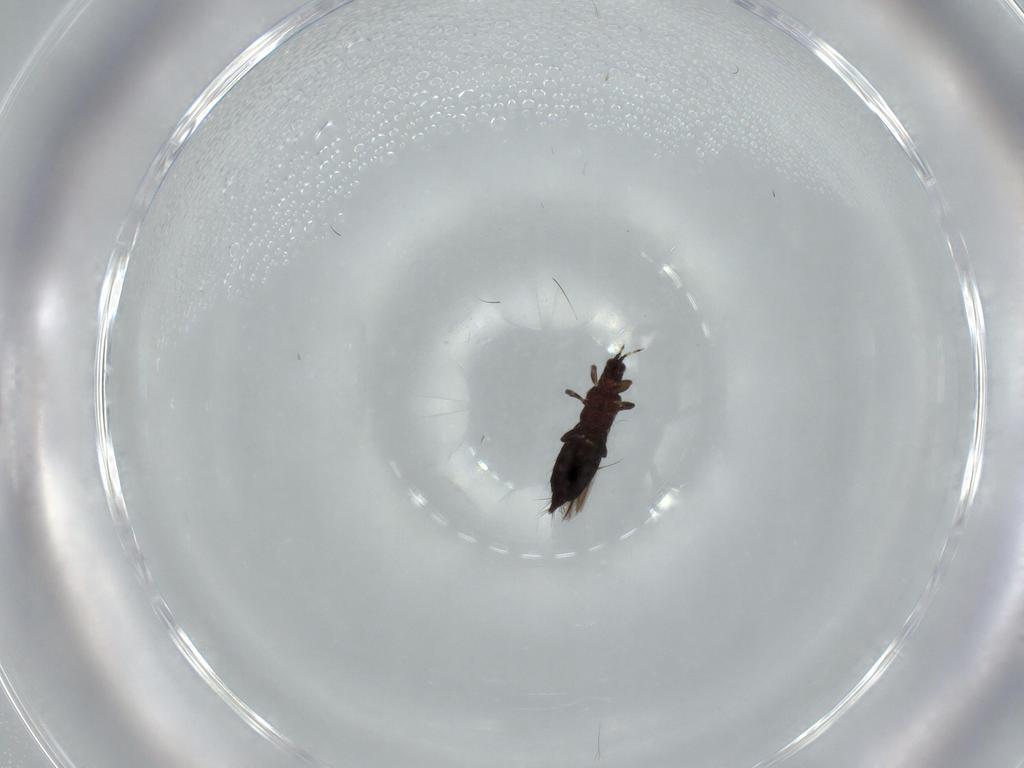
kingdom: Animalia
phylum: Arthropoda
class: Insecta
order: Thysanoptera
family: Thripidae
